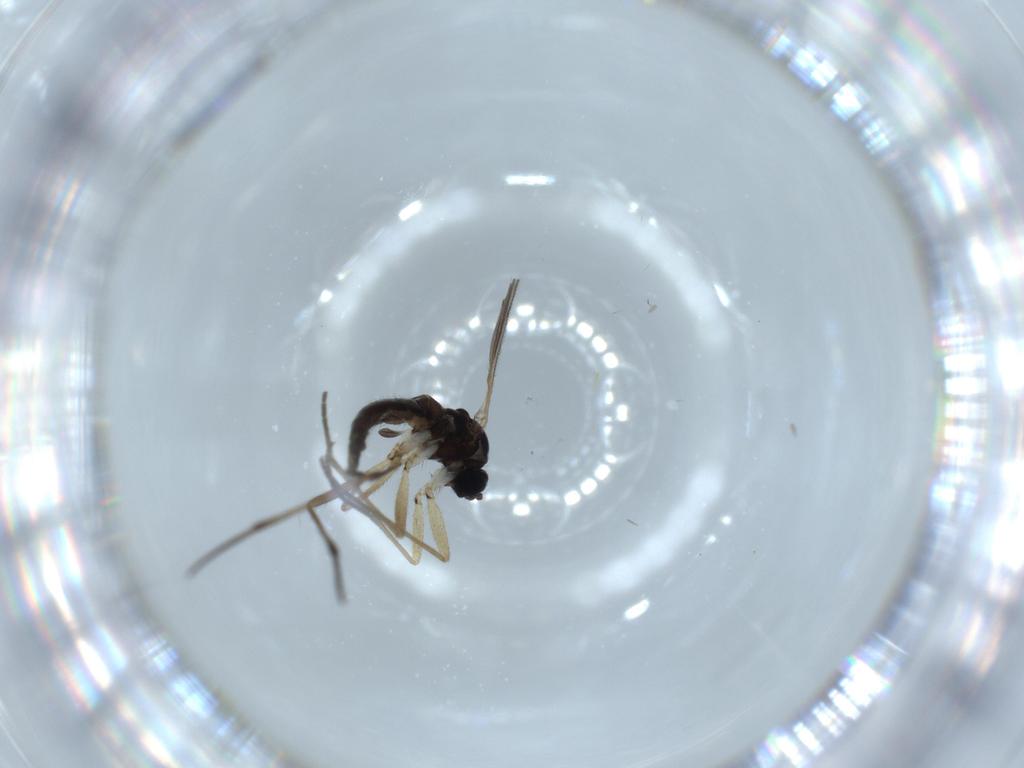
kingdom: Animalia
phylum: Arthropoda
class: Insecta
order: Diptera
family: Sciaridae
